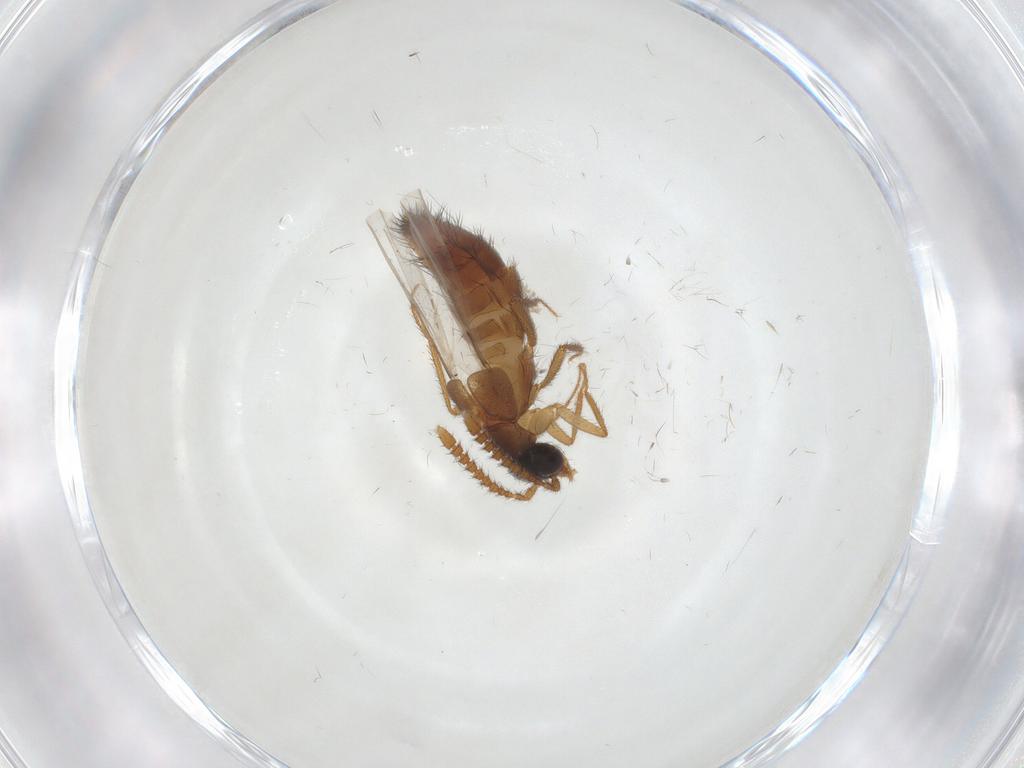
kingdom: Animalia
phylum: Arthropoda
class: Insecta
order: Coleoptera
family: Staphylinidae
